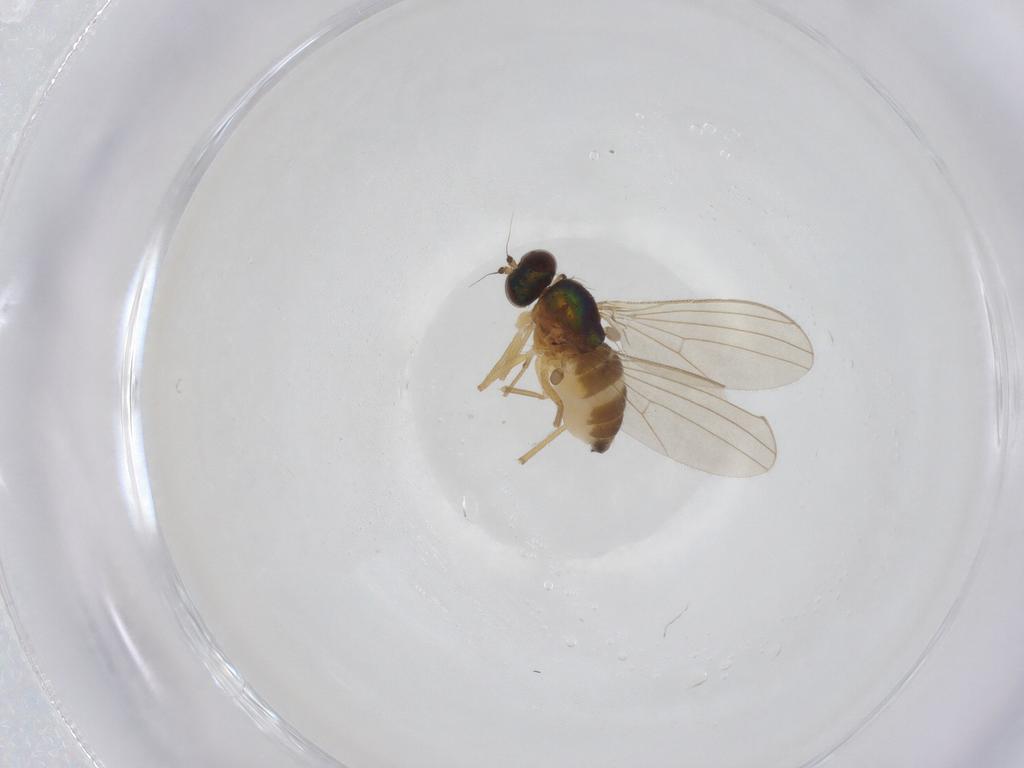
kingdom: Animalia
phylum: Arthropoda
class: Insecta
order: Diptera
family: Dolichopodidae
